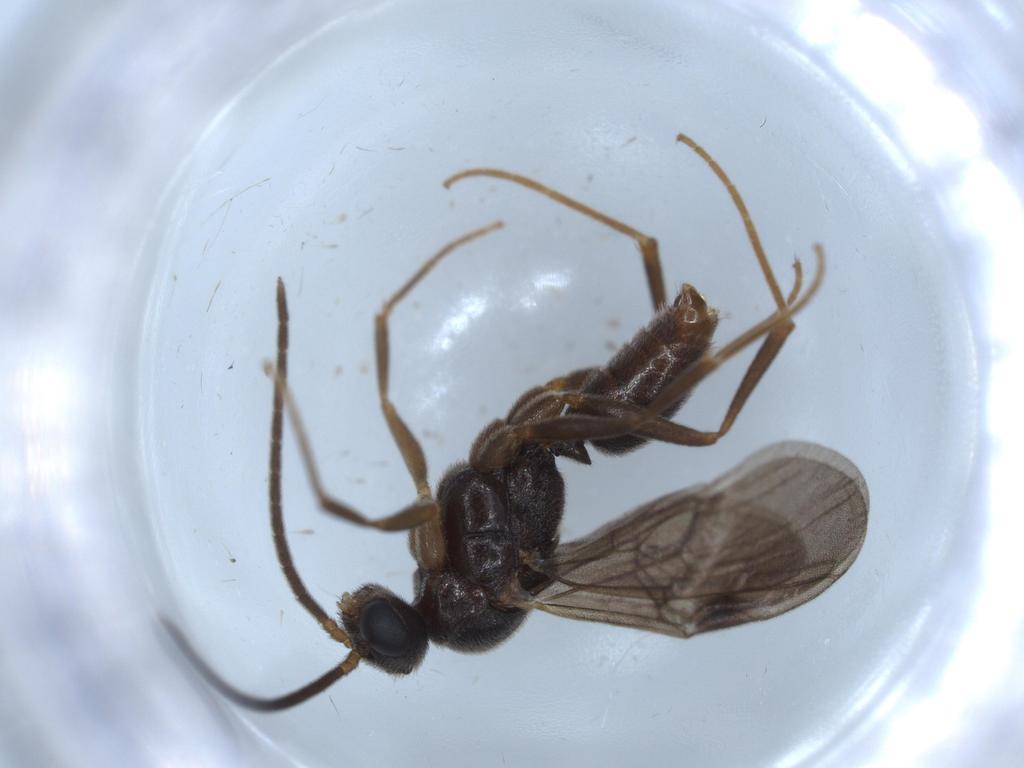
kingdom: Animalia
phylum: Arthropoda
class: Insecta
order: Hymenoptera
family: Formicidae
